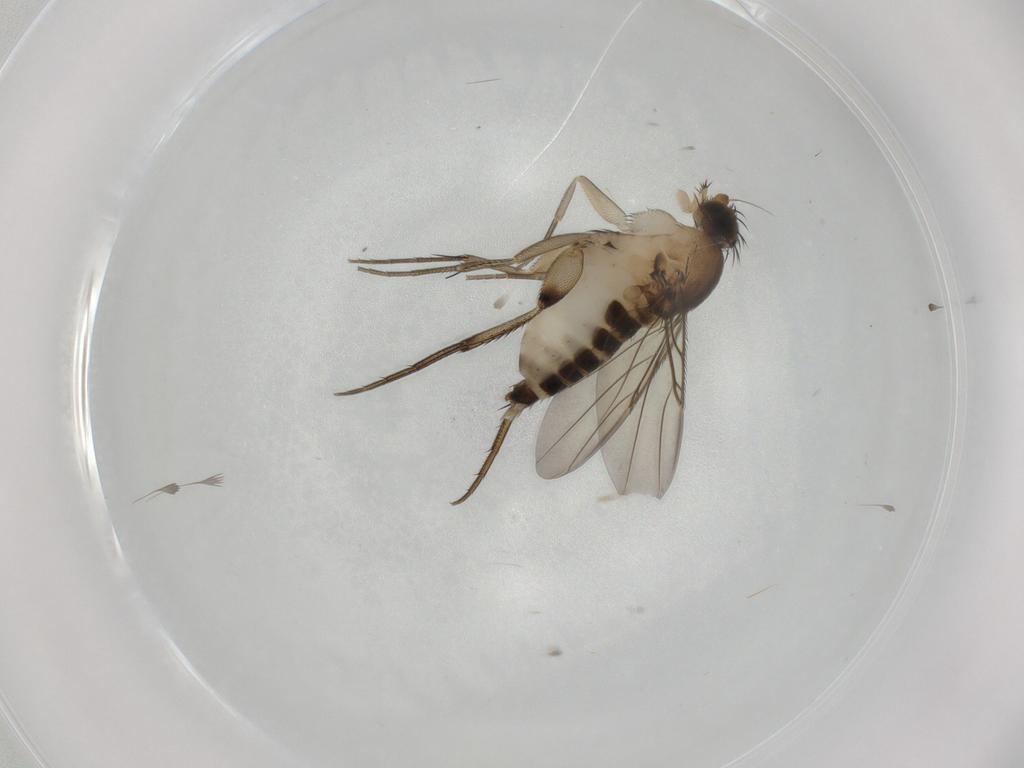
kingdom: Animalia
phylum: Arthropoda
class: Insecta
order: Diptera
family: Phoridae
